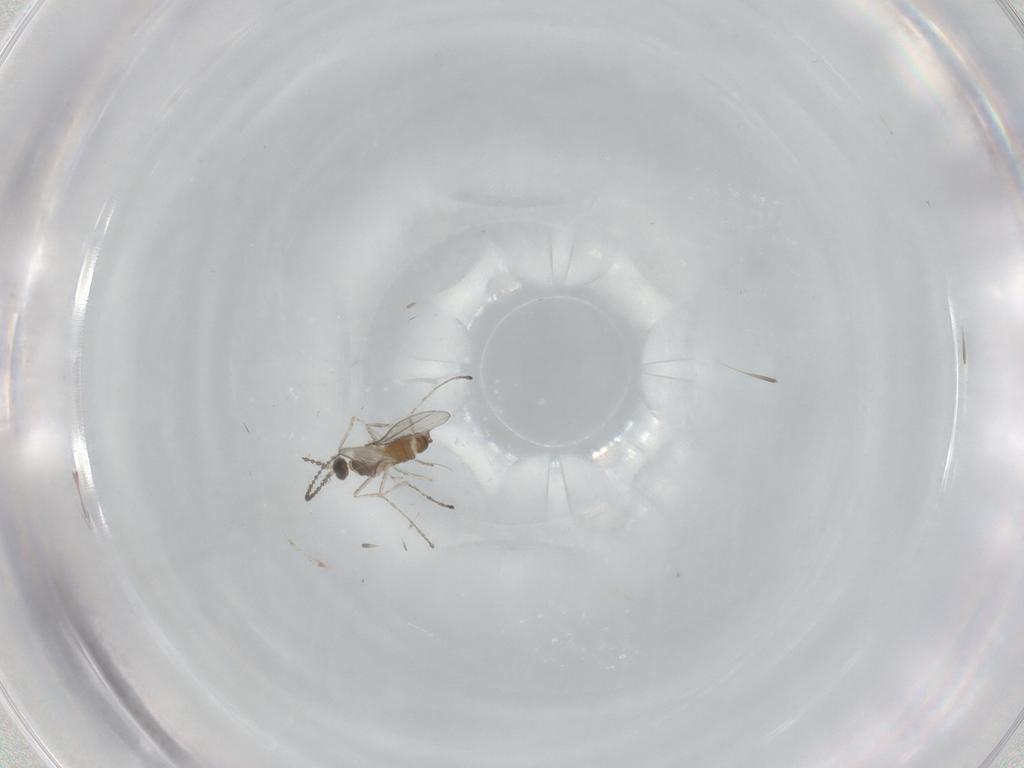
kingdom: Animalia
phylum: Arthropoda
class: Insecta
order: Diptera
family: Cecidomyiidae
